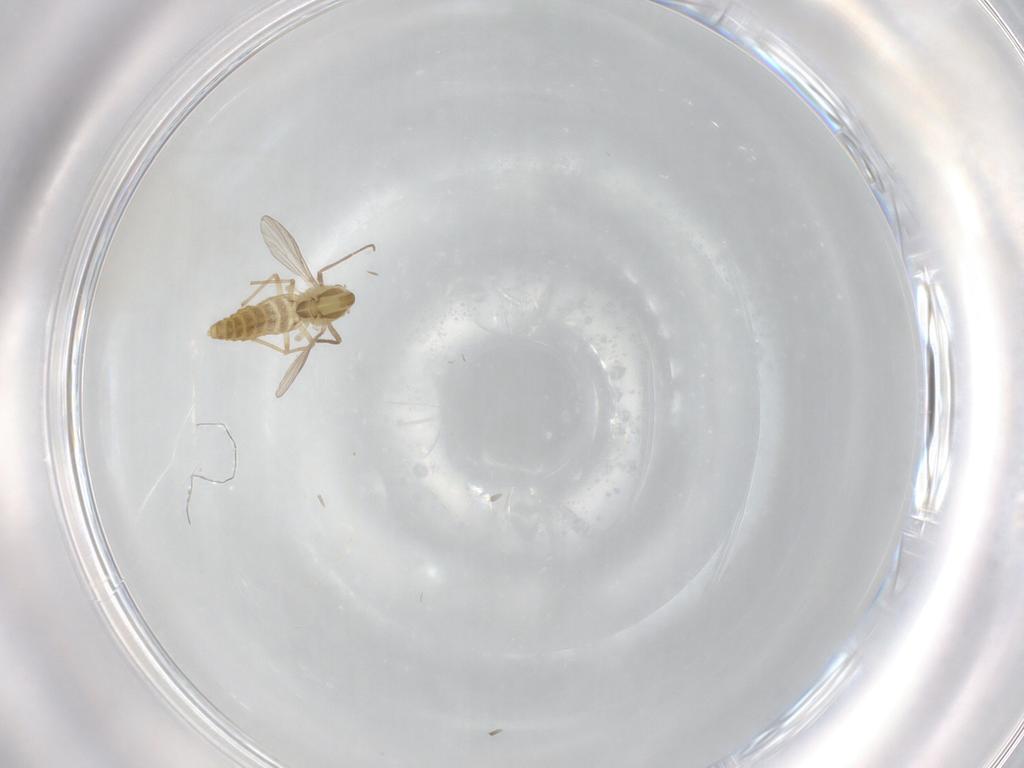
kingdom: Animalia
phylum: Arthropoda
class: Insecta
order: Diptera
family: Chironomidae
